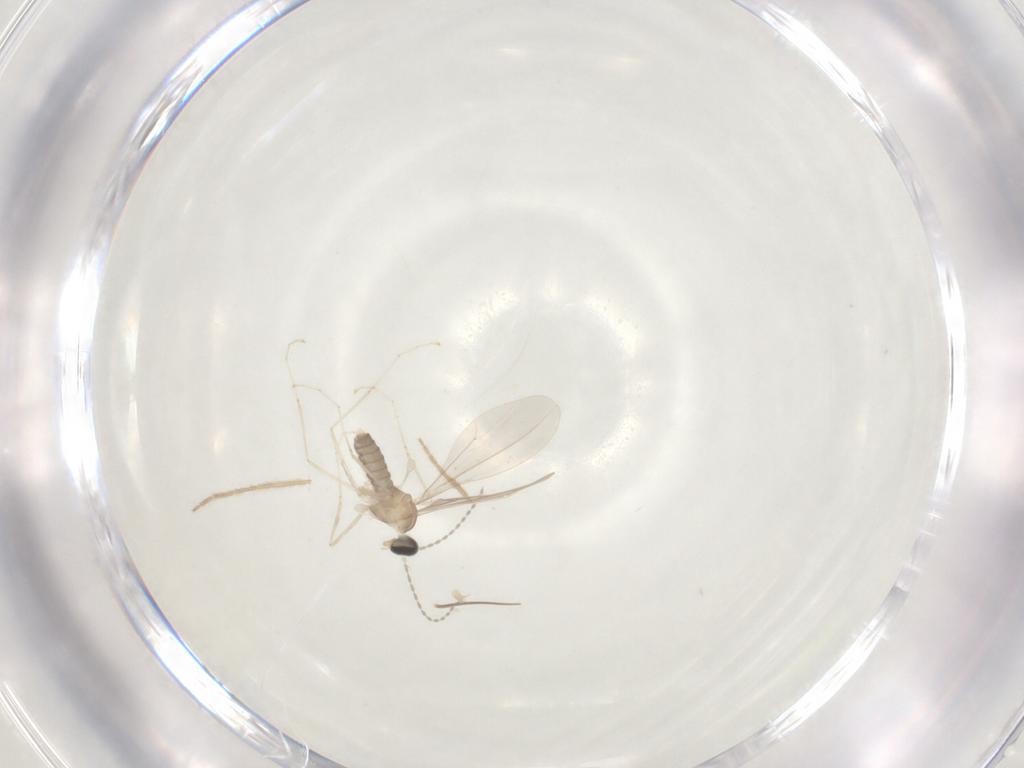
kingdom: Animalia
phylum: Arthropoda
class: Insecta
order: Diptera
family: Cecidomyiidae
